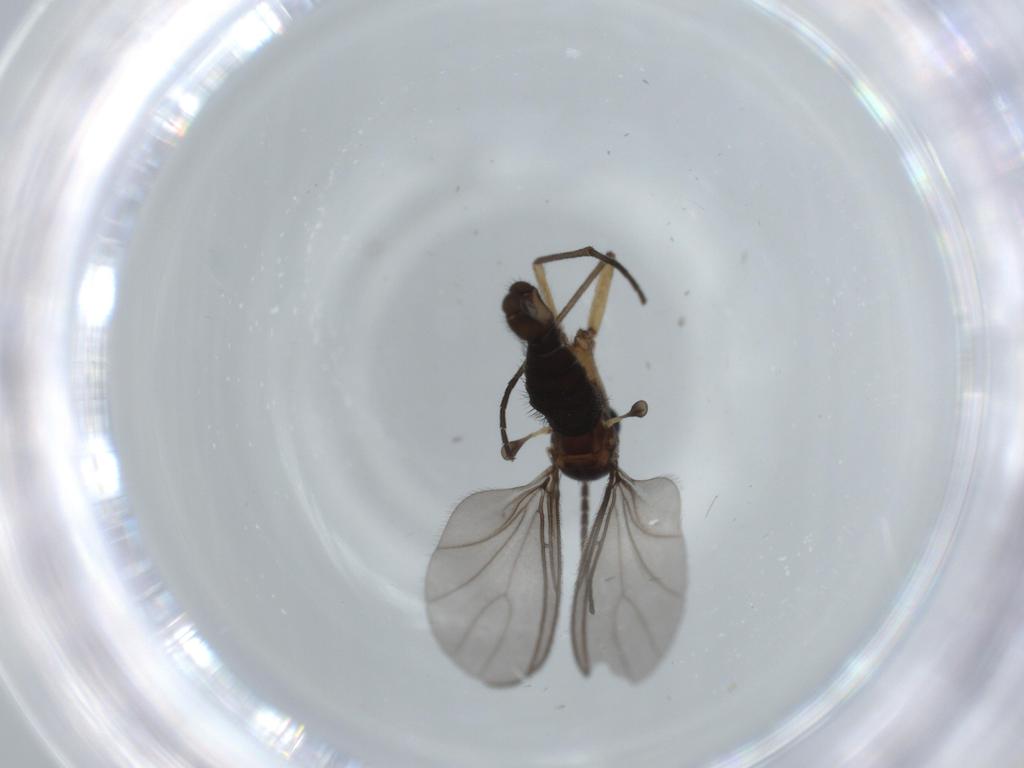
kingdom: Animalia
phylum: Arthropoda
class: Insecta
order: Diptera
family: Sciaridae
